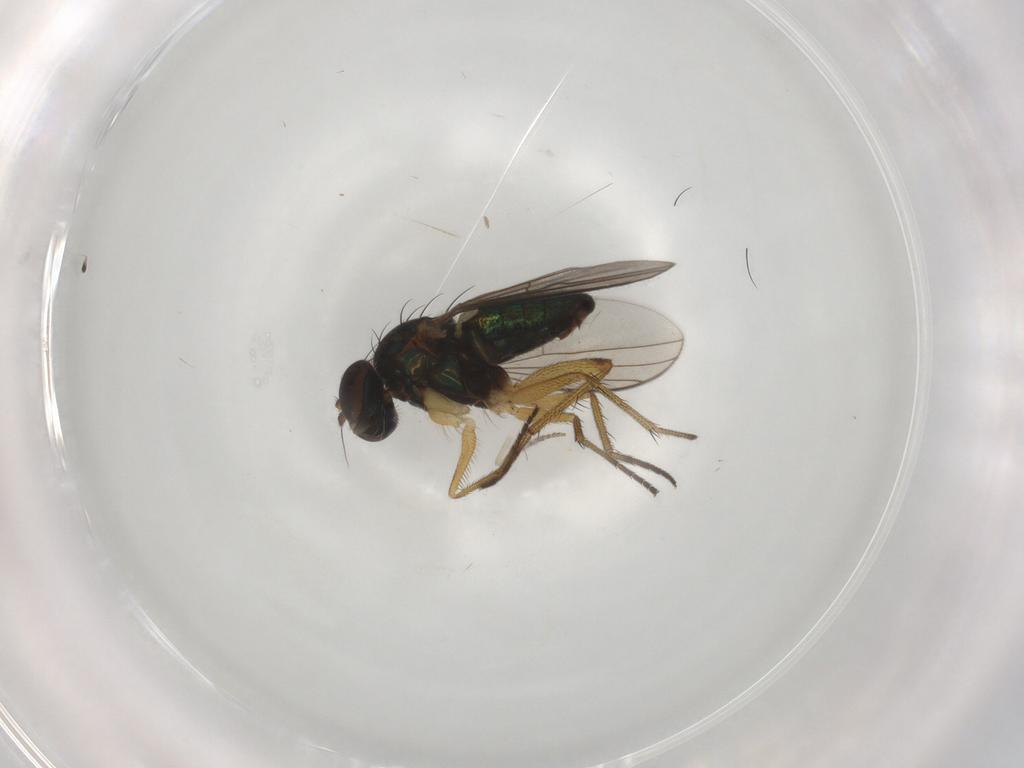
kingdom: Animalia
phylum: Arthropoda
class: Insecta
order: Diptera
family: Psychodidae
